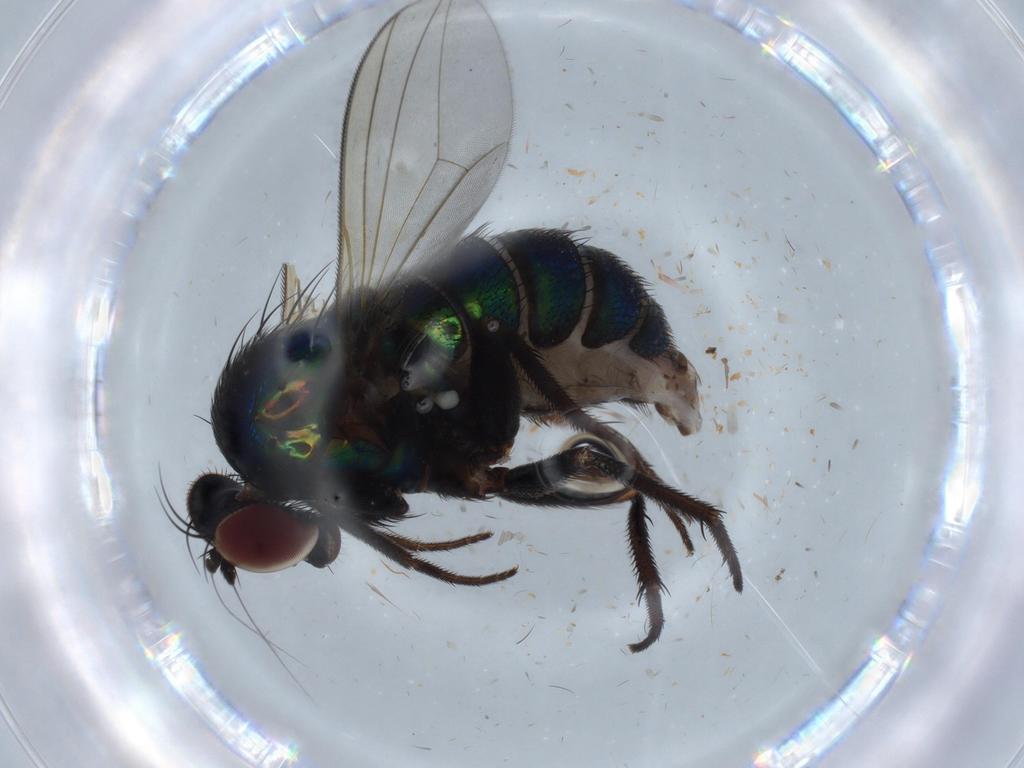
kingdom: Animalia
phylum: Arthropoda
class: Insecta
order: Diptera
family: Dolichopodidae
